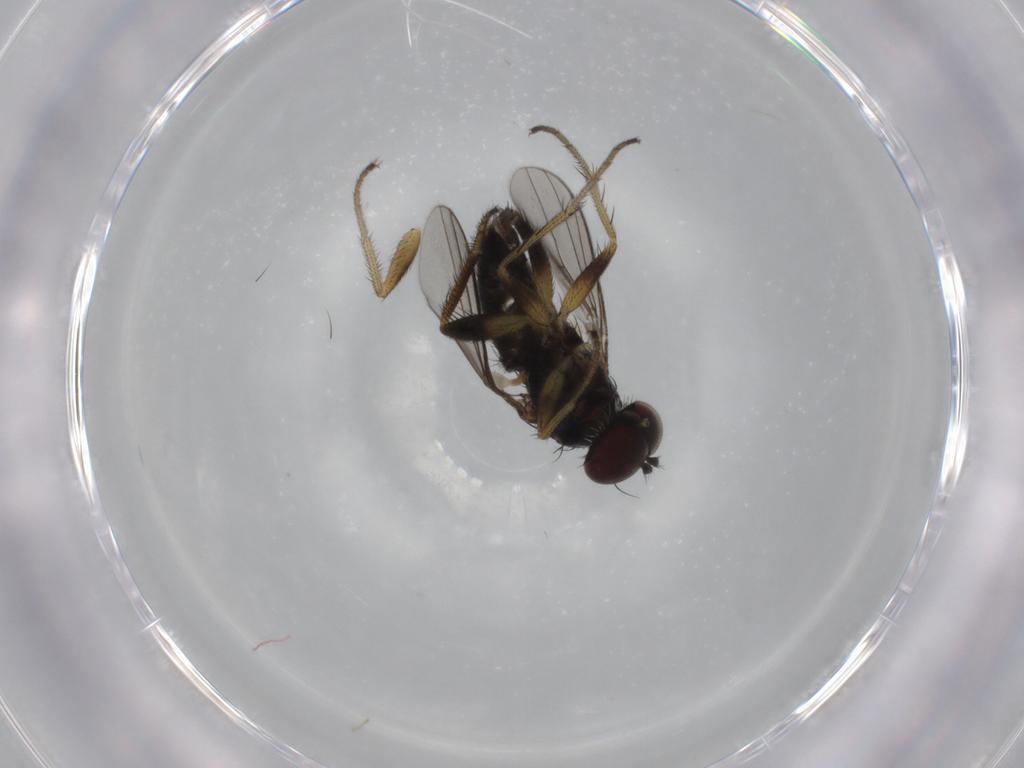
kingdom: Animalia
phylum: Arthropoda
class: Insecta
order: Diptera
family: Dolichopodidae
